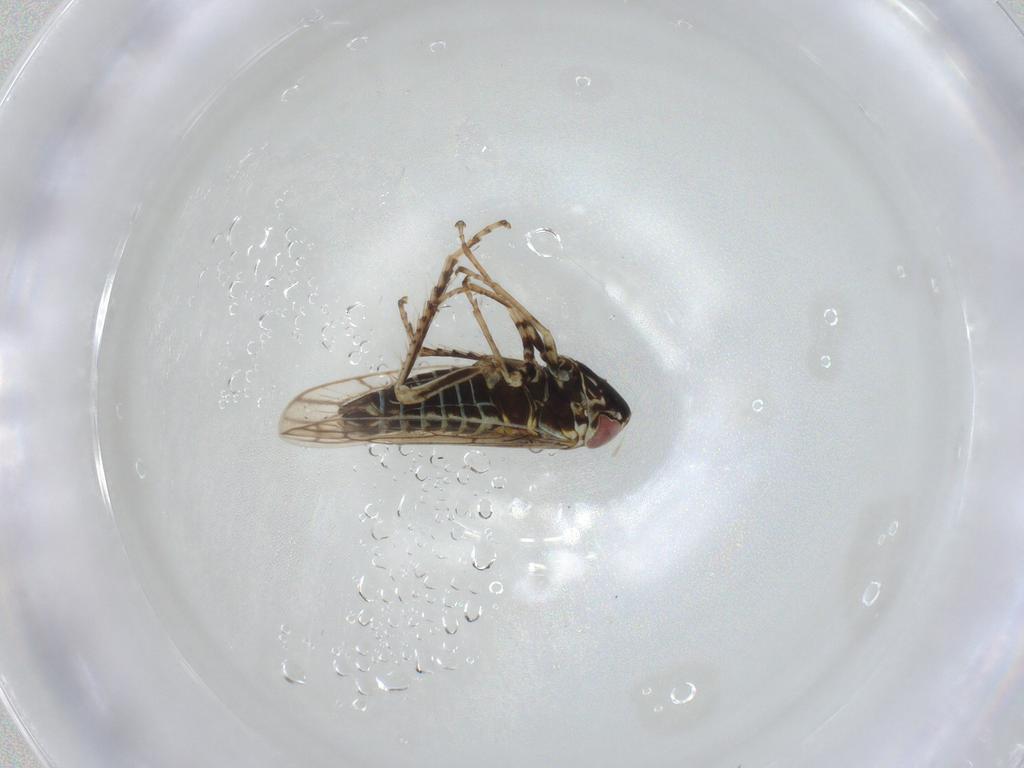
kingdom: Animalia
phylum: Arthropoda
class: Insecta
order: Hemiptera
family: Cicadellidae
